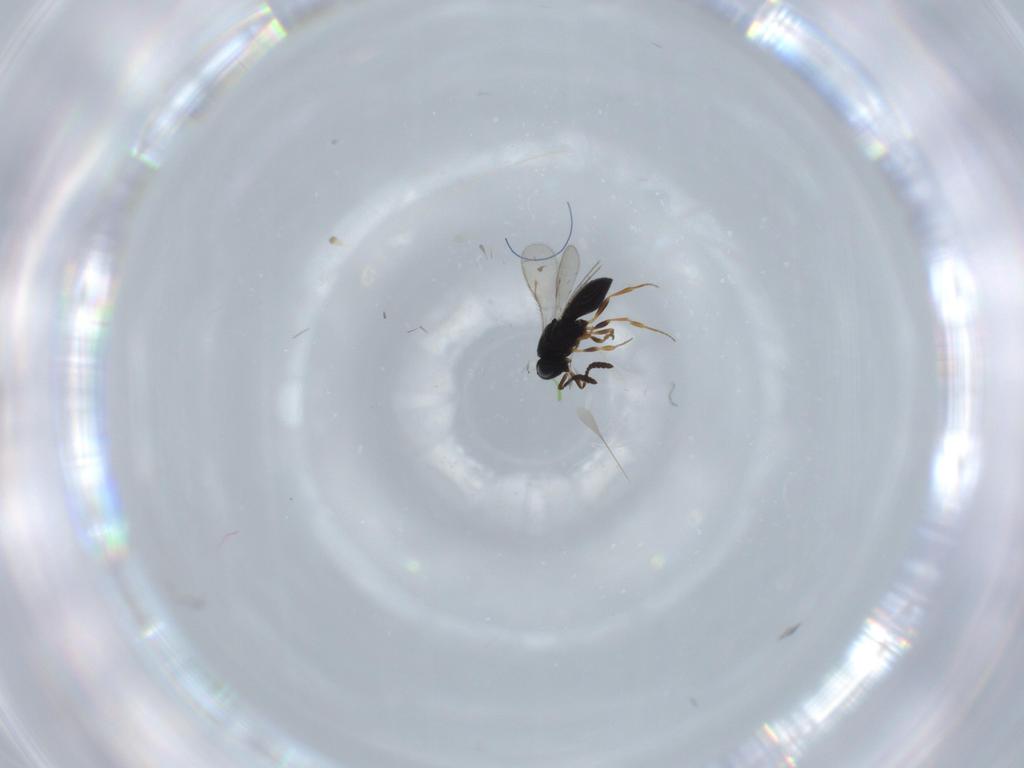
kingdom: Animalia
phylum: Arthropoda
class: Insecta
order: Hymenoptera
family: Scelionidae
